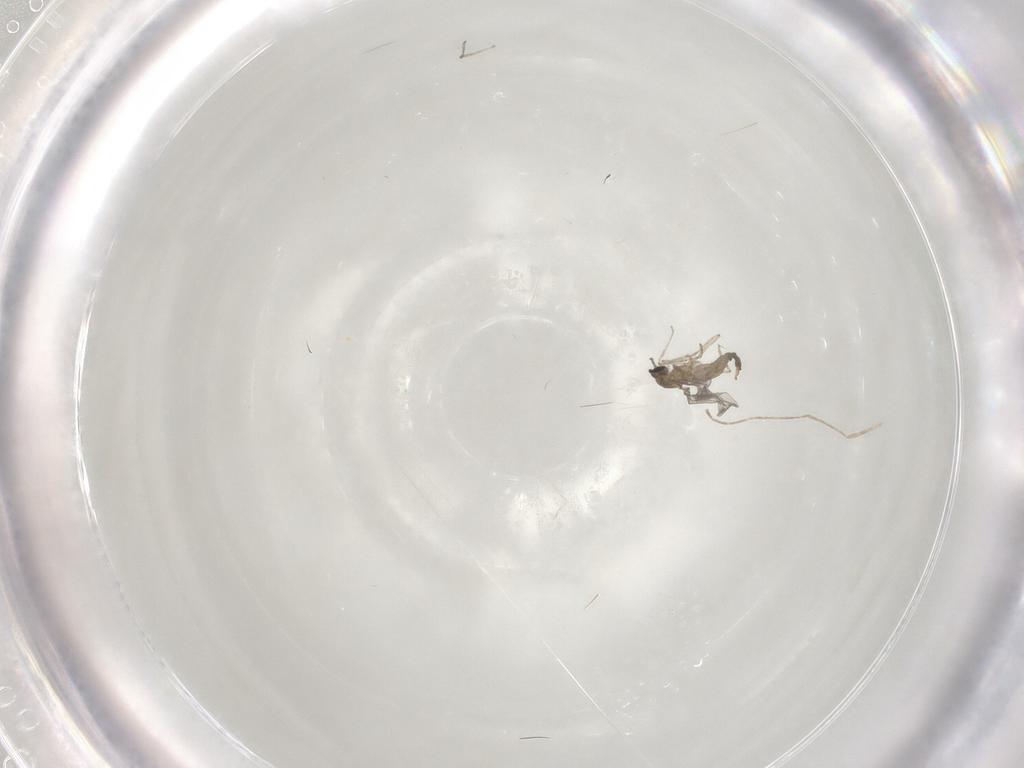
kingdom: Animalia
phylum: Arthropoda
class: Insecta
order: Diptera
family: Cecidomyiidae
